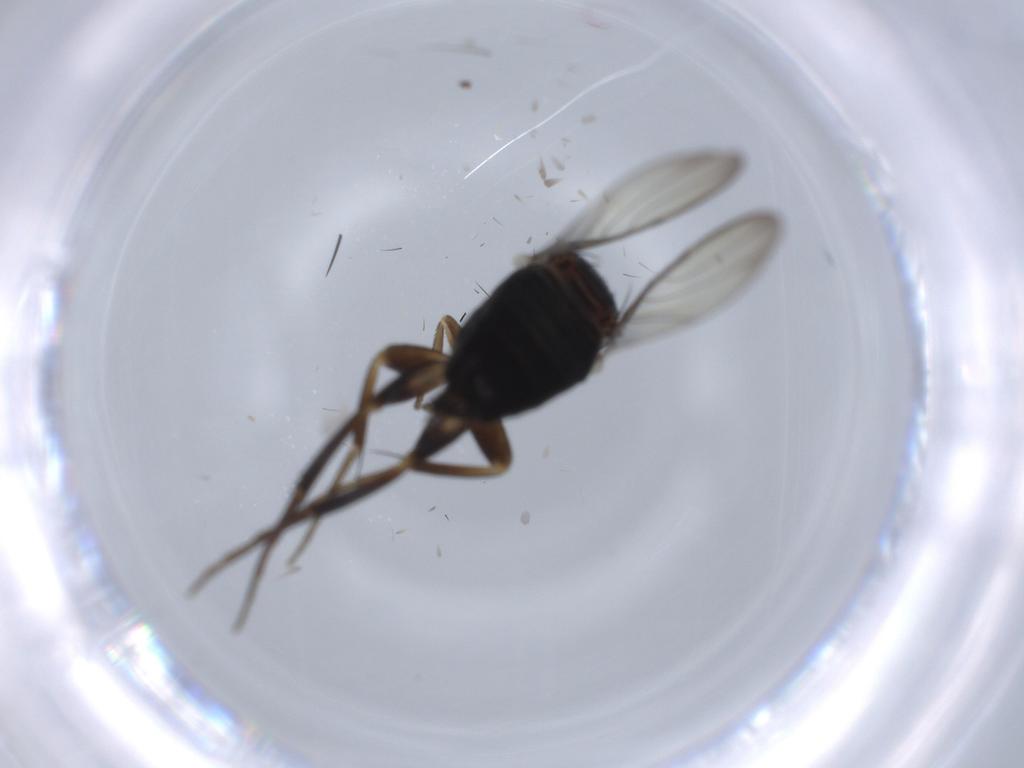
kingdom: Animalia
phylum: Arthropoda
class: Insecta
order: Diptera
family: Phoridae
